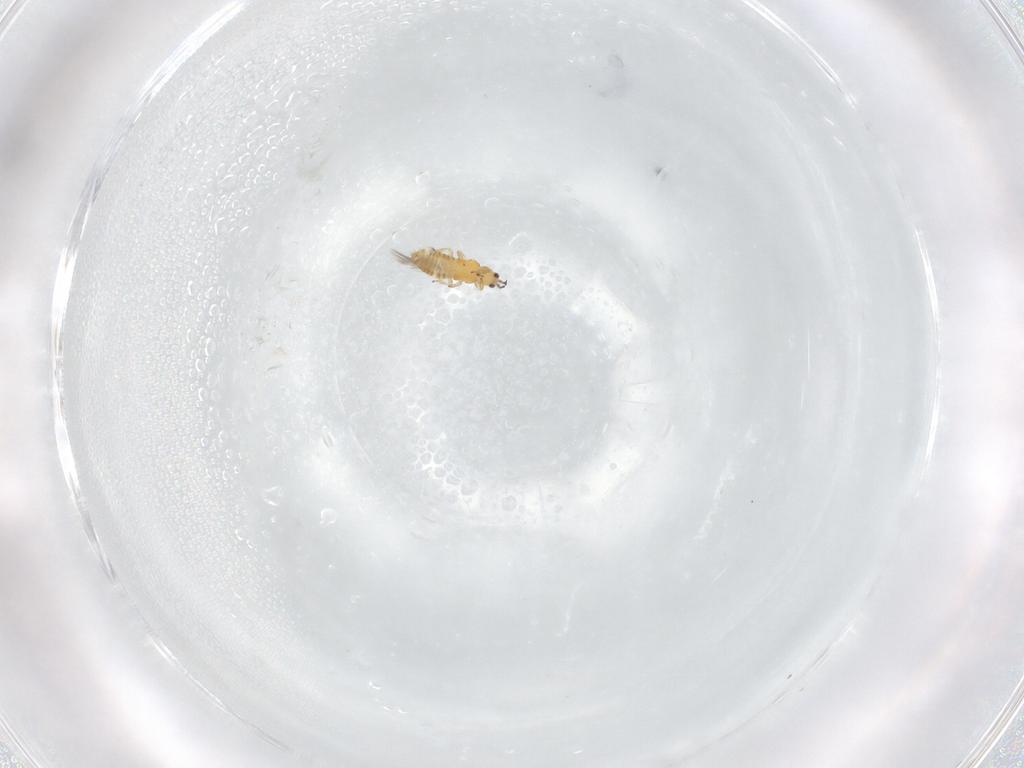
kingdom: Animalia
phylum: Arthropoda
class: Insecta
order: Thysanoptera
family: Thripidae
